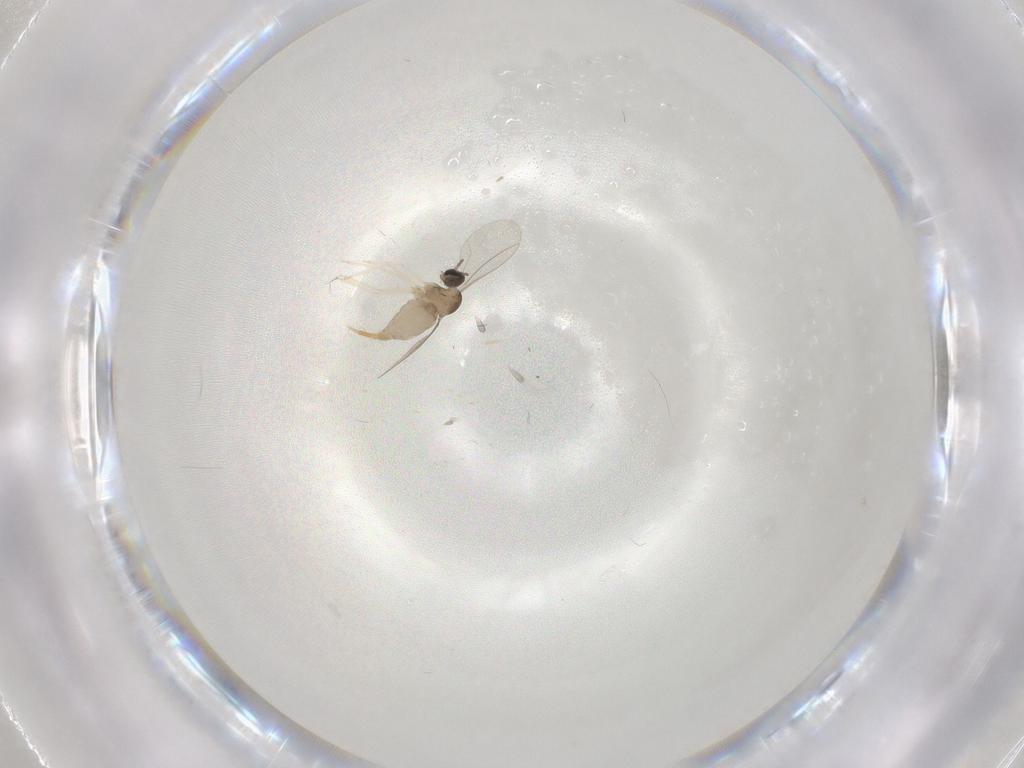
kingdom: Animalia
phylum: Arthropoda
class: Insecta
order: Diptera
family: Cecidomyiidae
